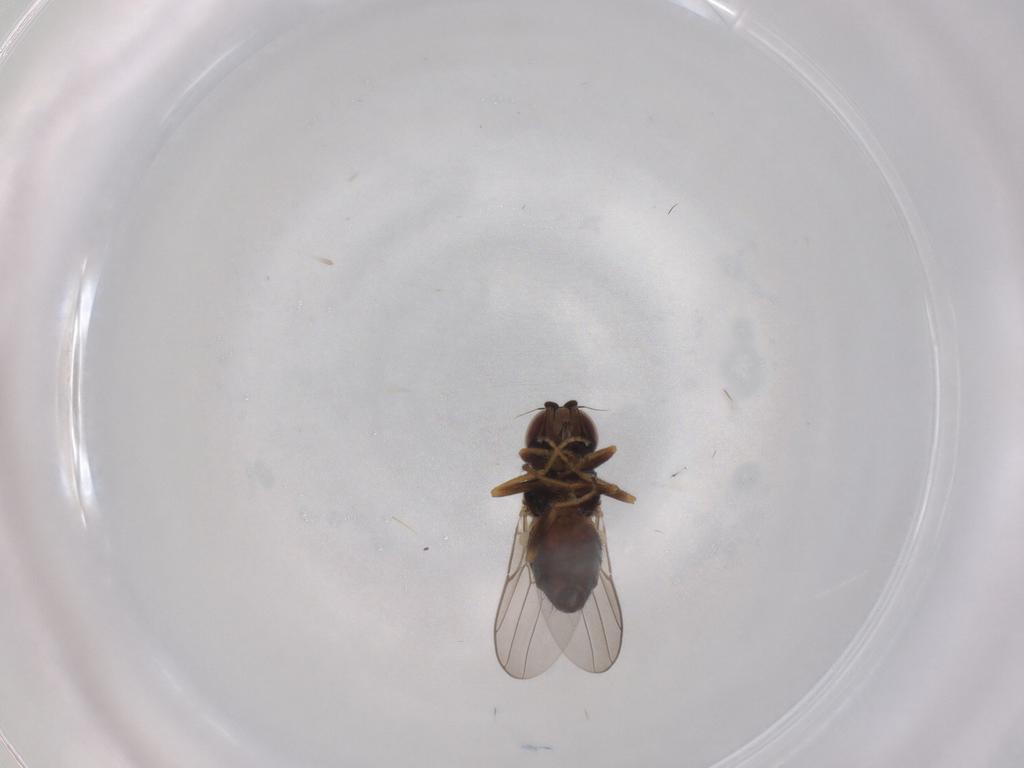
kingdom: Animalia
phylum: Arthropoda
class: Insecta
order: Diptera
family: Chloropidae
